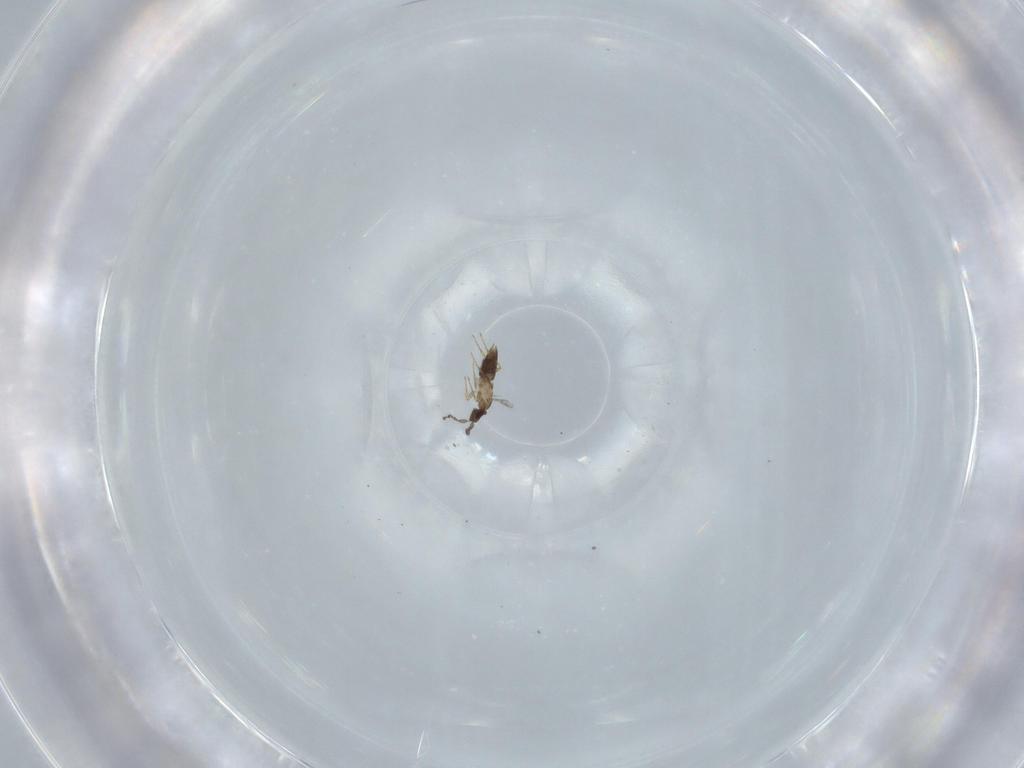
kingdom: Animalia
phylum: Arthropoda
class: Insecta
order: Hymenoptera
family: Mymaridae
